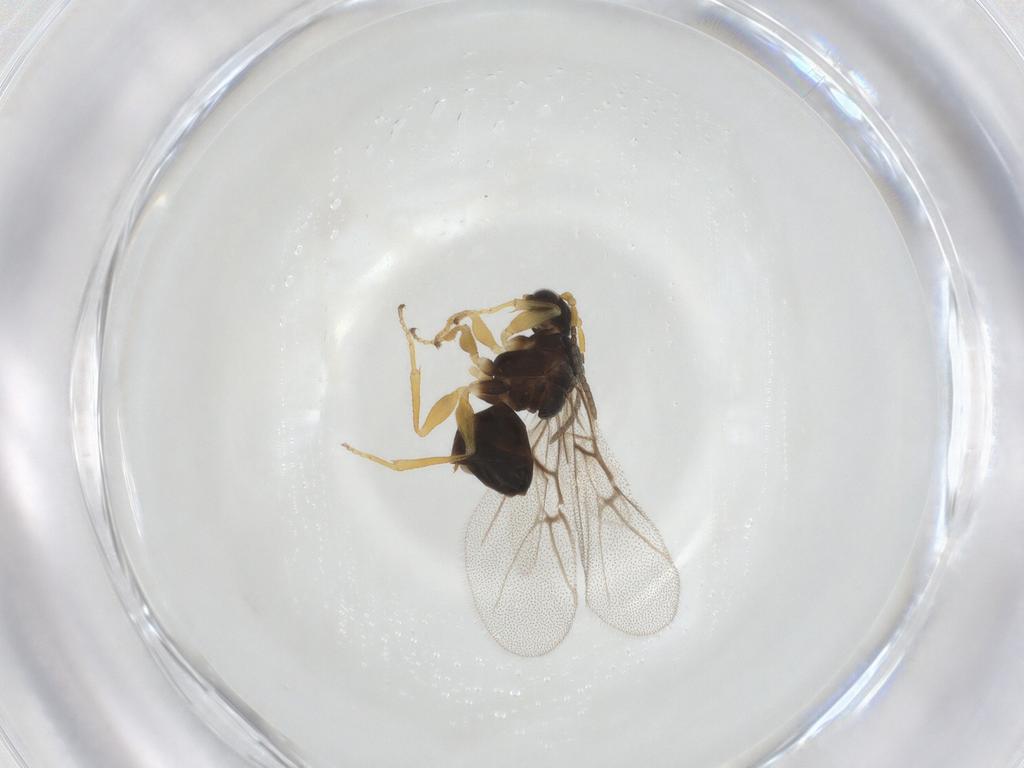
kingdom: Animalia
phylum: Arthropoda
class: Insecta
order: Hymenoptera
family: Cynipidae
